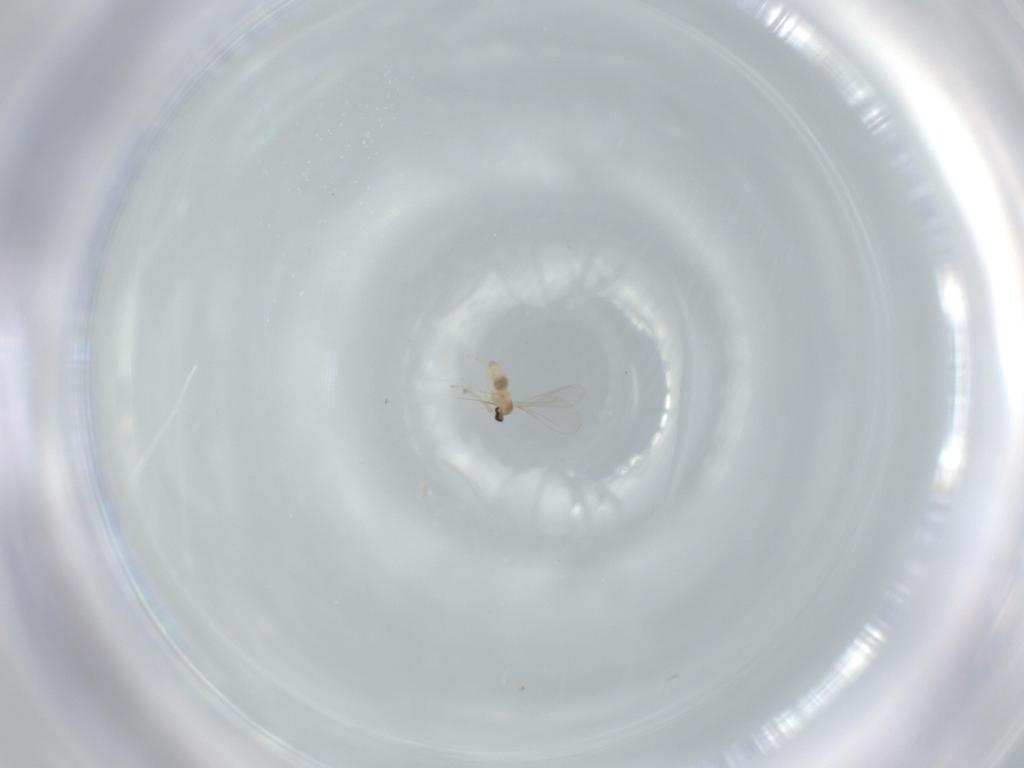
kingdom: Animalia
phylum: Arthropoda
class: Insecta
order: Diptera
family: Cecidomyiidae
